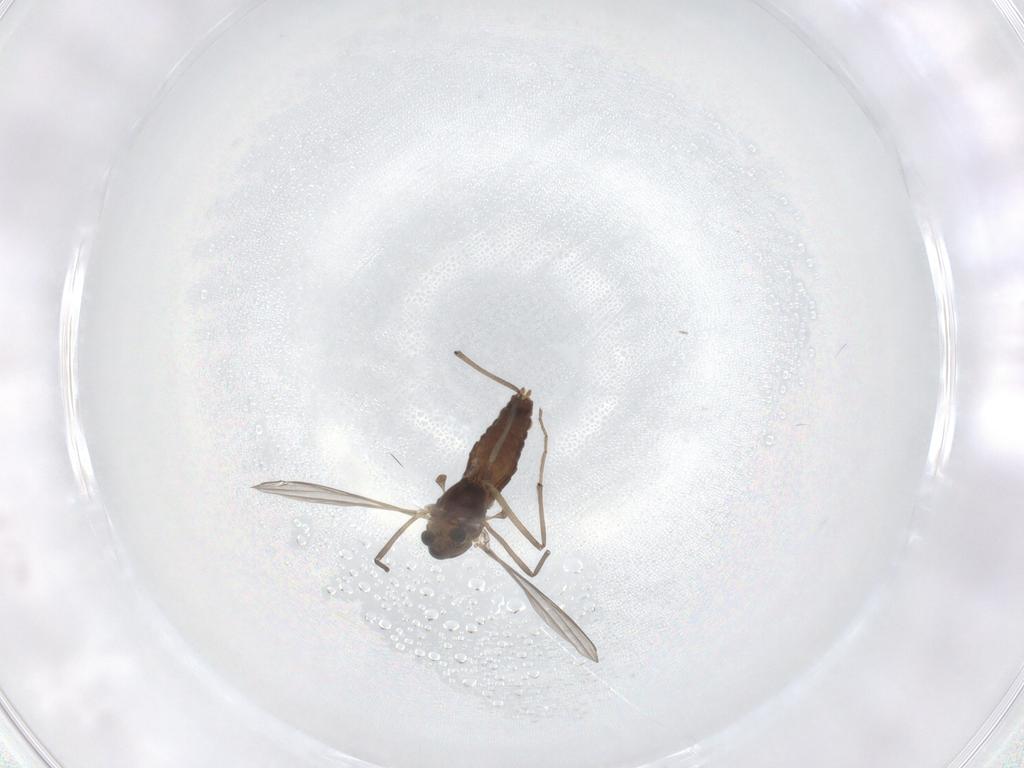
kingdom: Animalia
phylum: Arthropoda
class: Insecta
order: Diptera
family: Chironomidae
